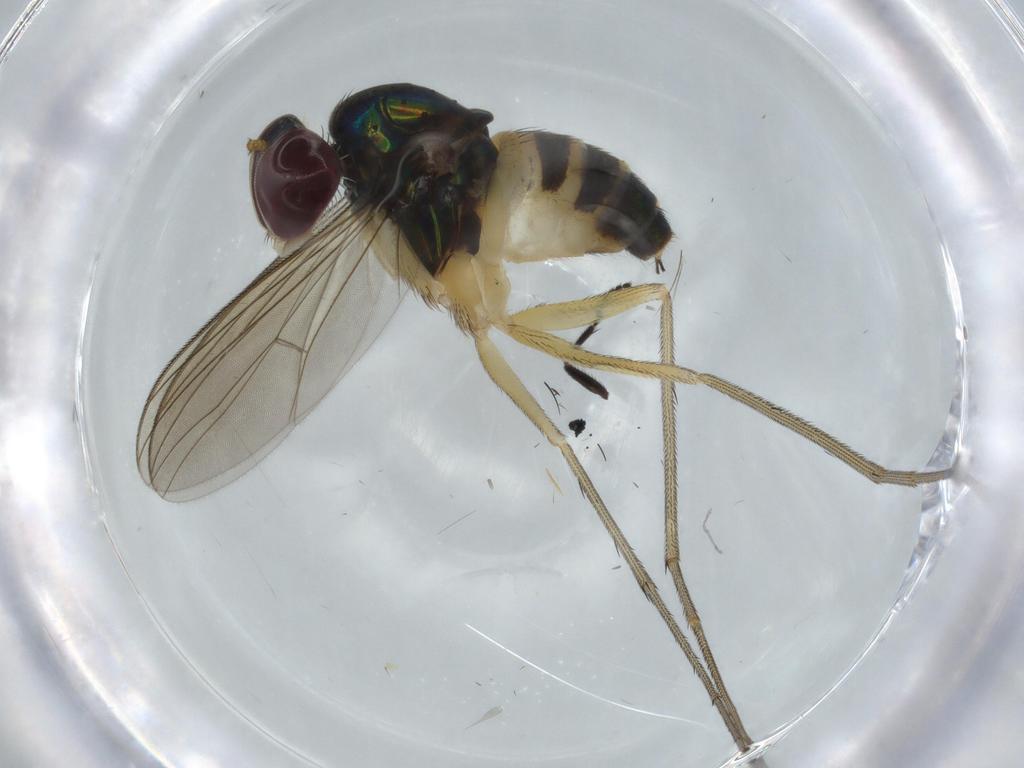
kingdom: Animalia
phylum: Arthropoda
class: Insecta
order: Diptera
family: Dolichopodidae
